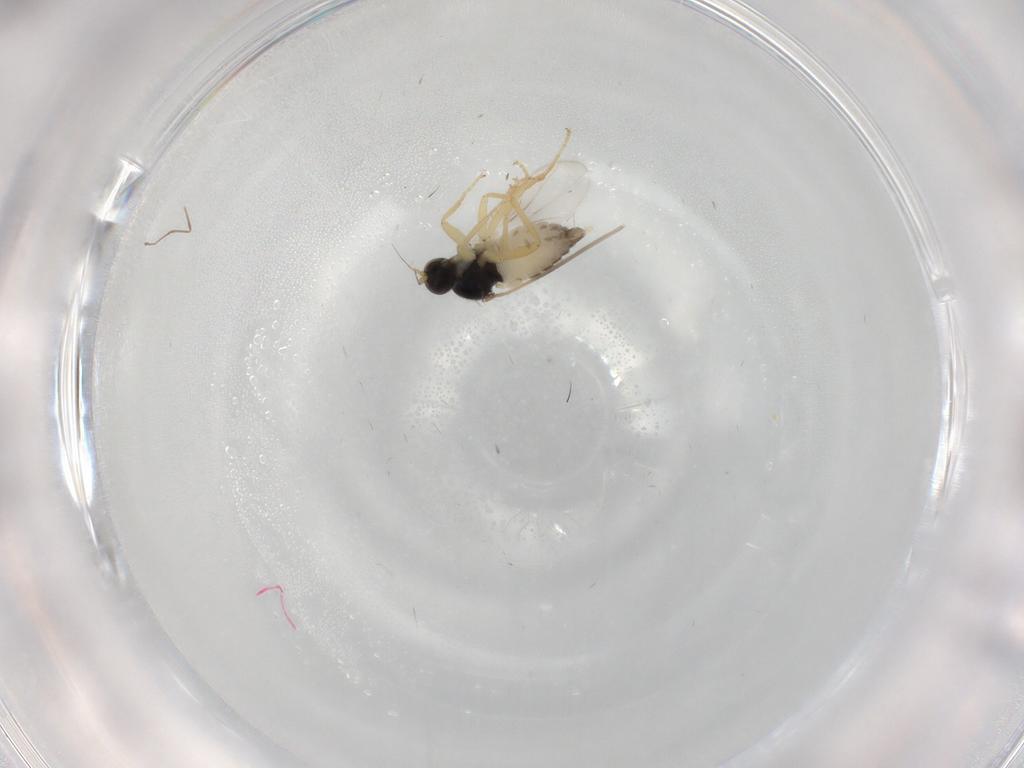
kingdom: Animalia
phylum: Arthropoda
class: Insecta
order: Diptera
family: Hybotidae
